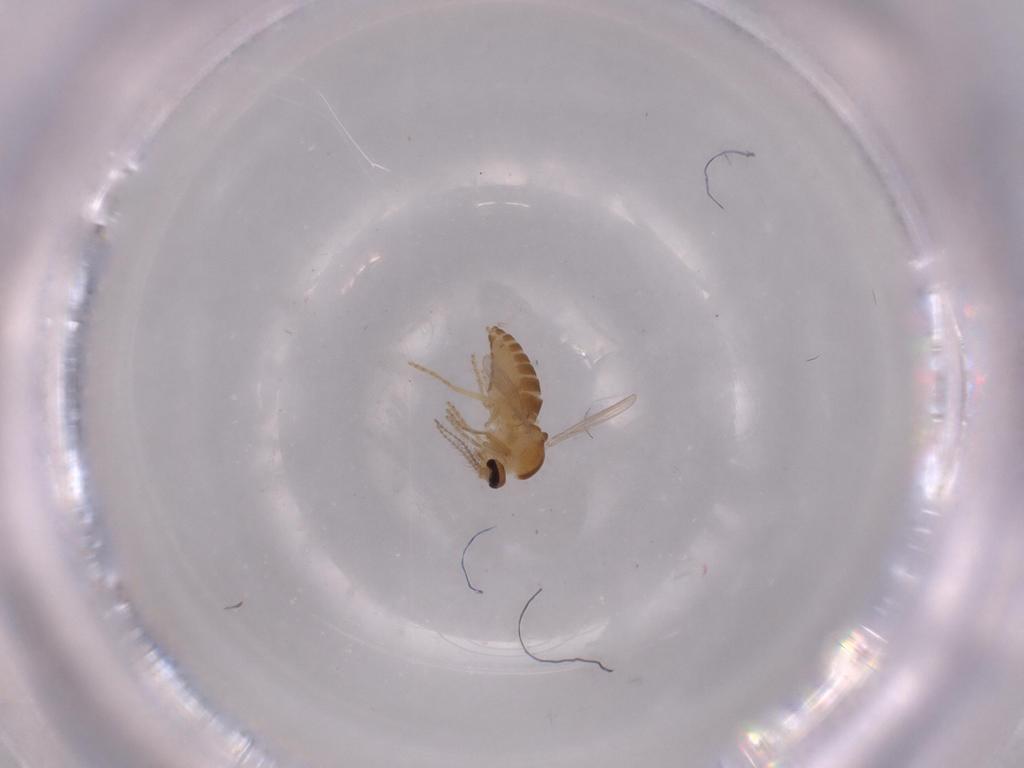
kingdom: Animalia
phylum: Arthropoda
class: Insecta
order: Diptera
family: Ceratopogonidae
